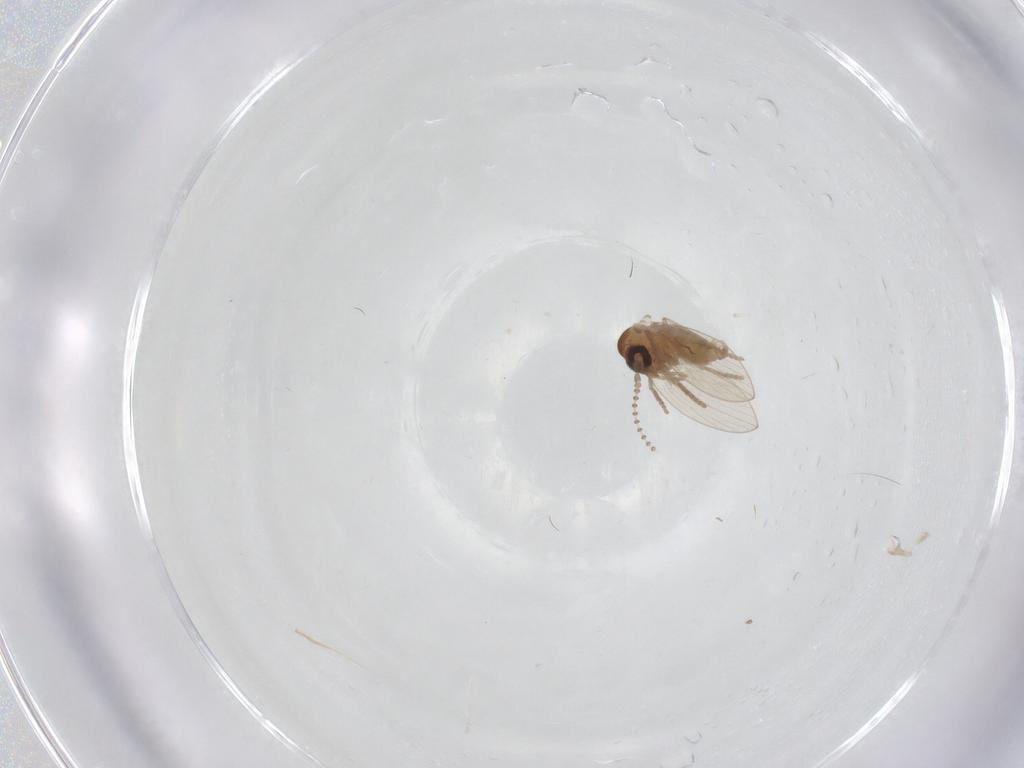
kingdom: Animalia
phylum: Arthropoda
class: Insecta
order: Diptera
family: Psychodidae
